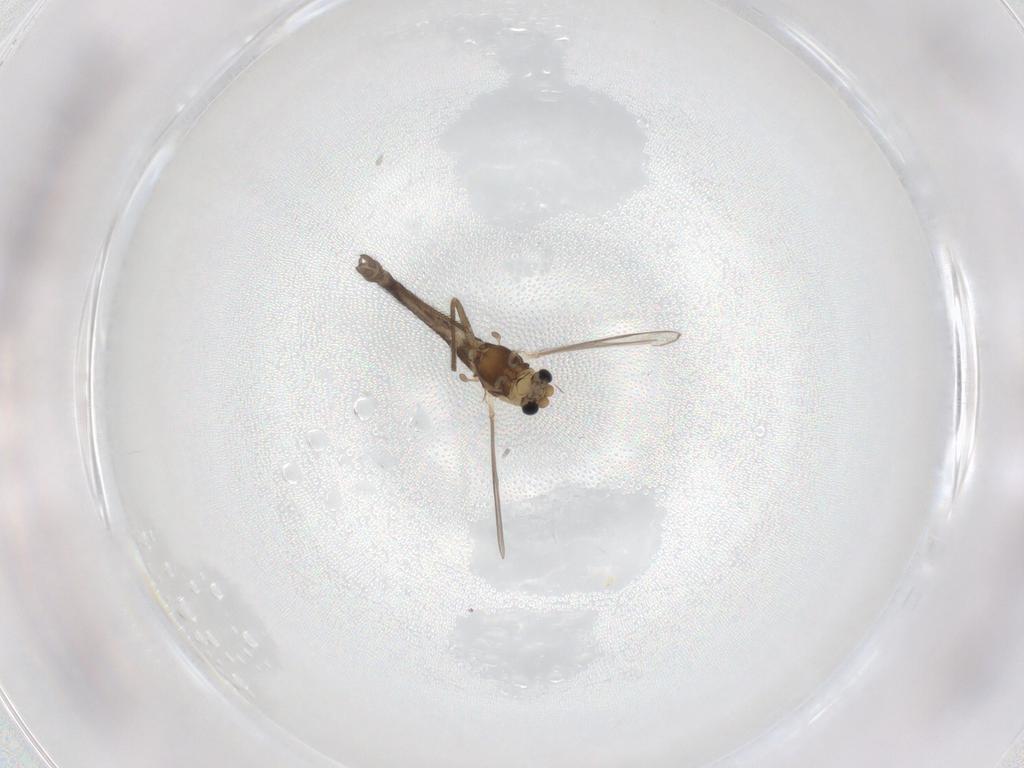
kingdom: Animalia
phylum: Arthropoda
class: Insecta
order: Diptera
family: Chironomidae
